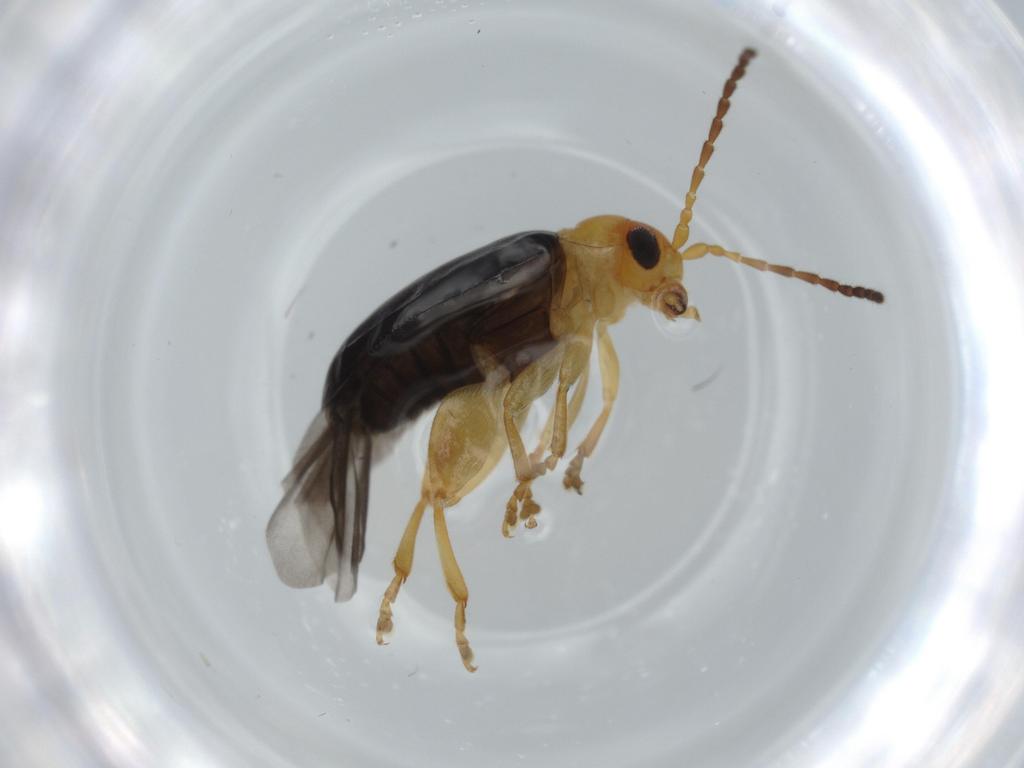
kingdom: Animalia
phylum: Arthropoda
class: Insecta
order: Coleoptera
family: Chrysomelidae
